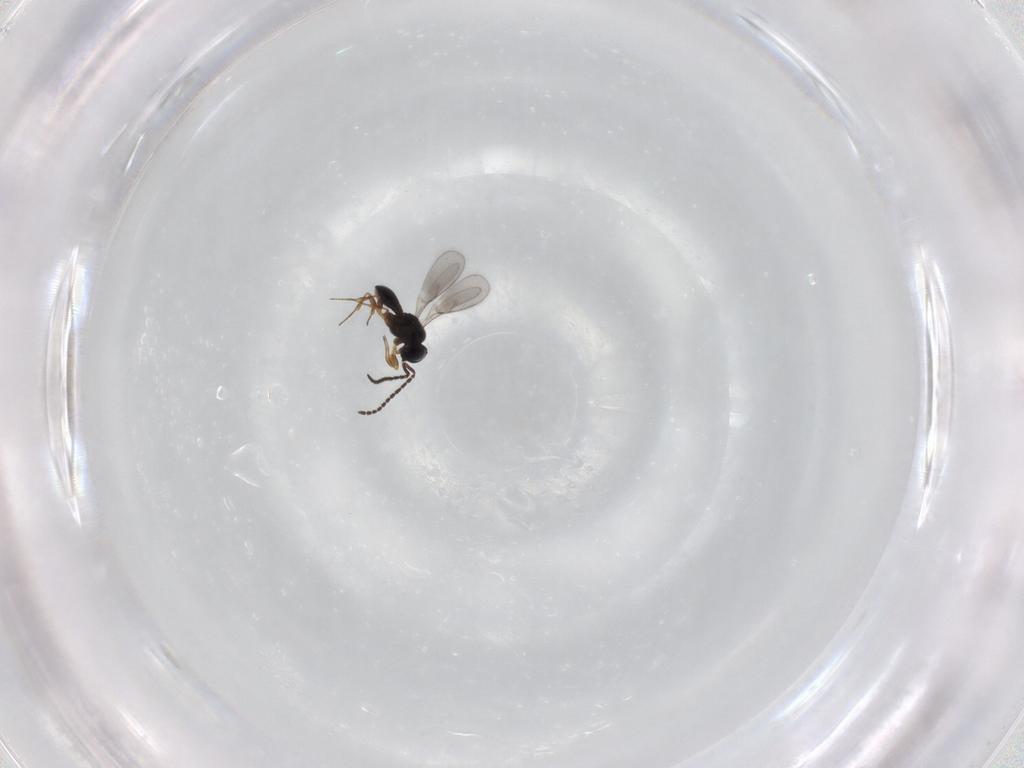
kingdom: Animalia
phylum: Arthropoda
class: Insecta
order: Hymenoptera
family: Scelionidae
